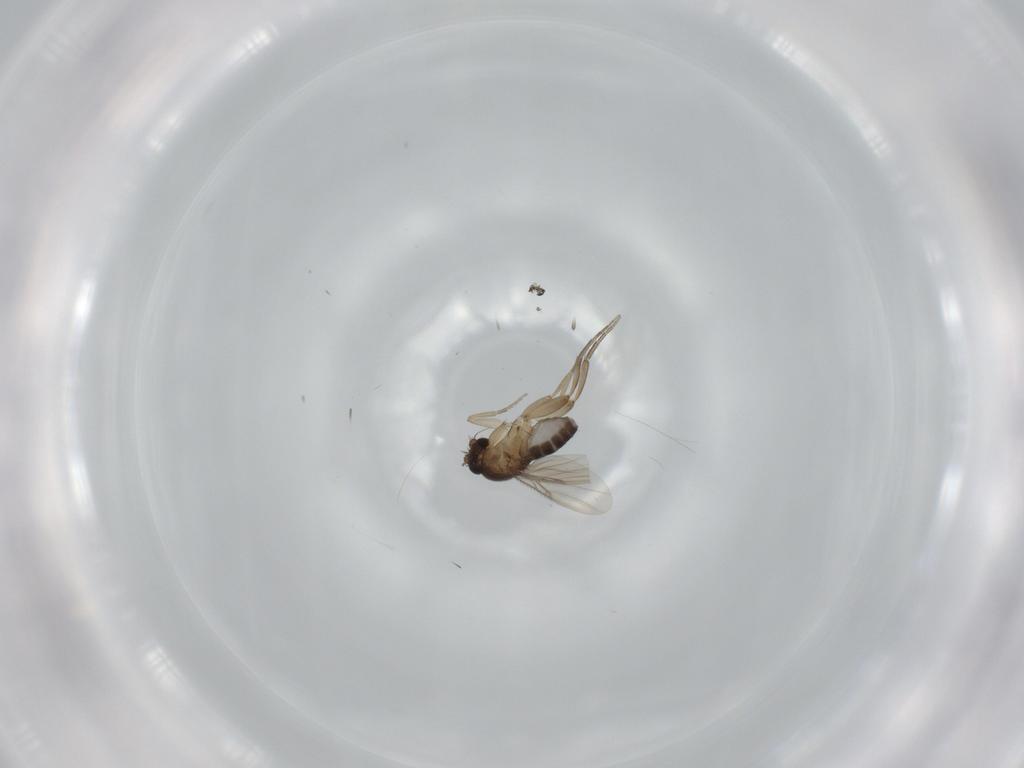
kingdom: Animalia
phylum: Arthropoda
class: Insecta
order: Diptera
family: Phoridae
